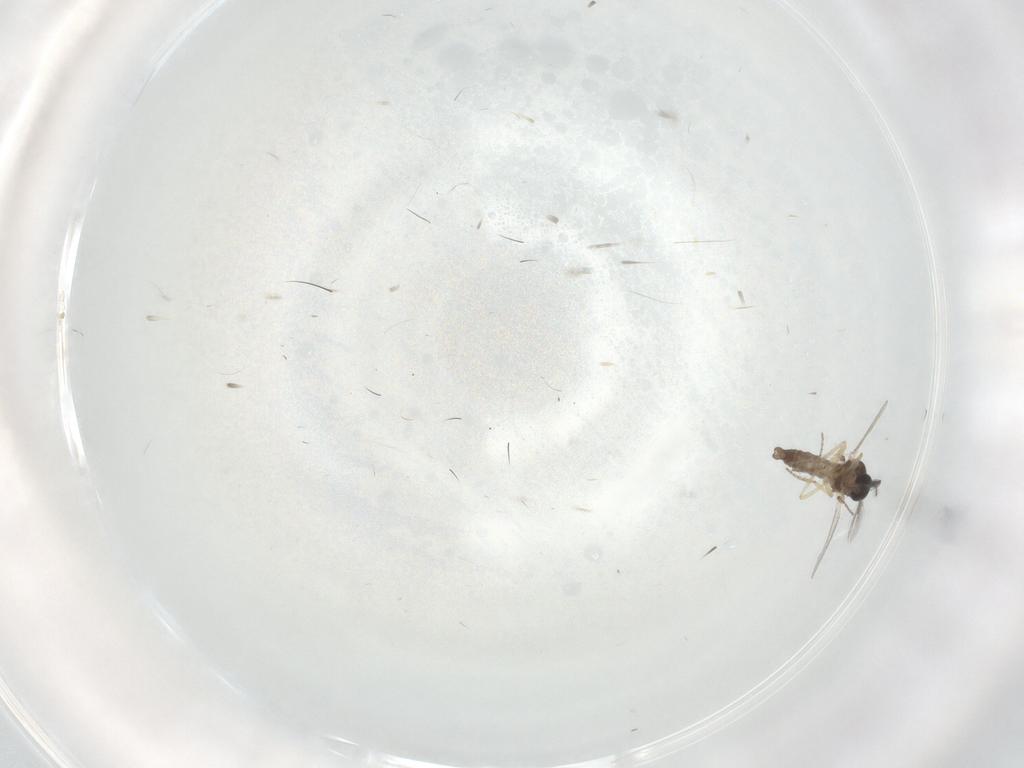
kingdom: Animalia
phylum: Arthropoda
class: Insecta
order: Diptera
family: Ceratopogonidae
